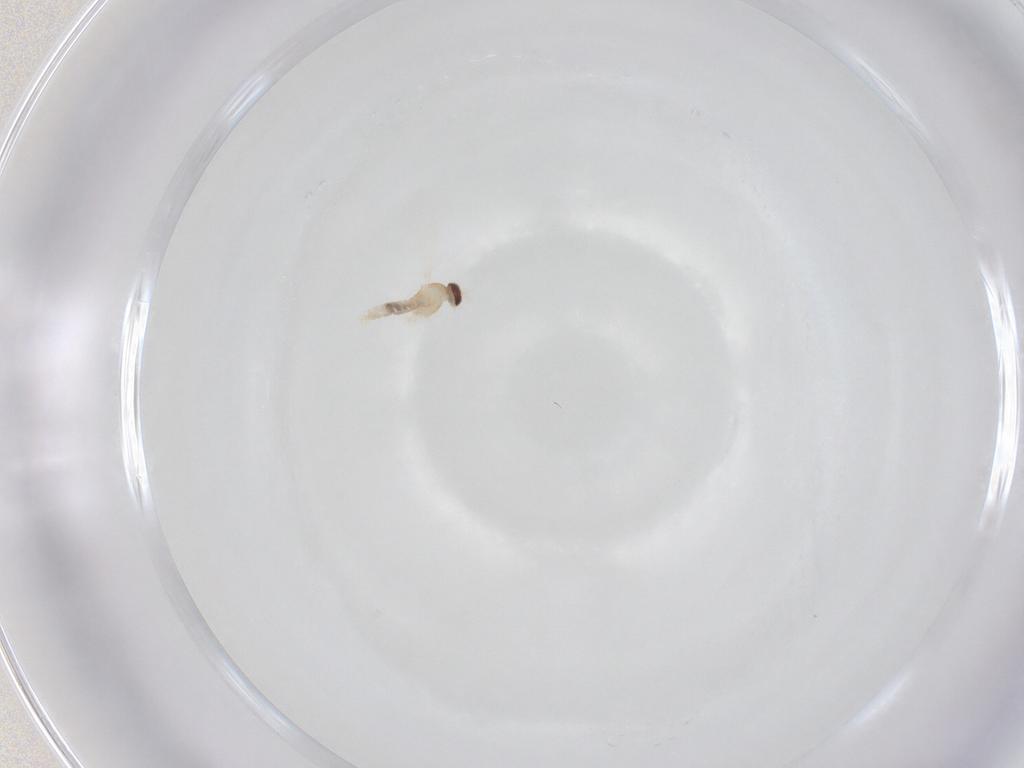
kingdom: Animalia
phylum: Arthropoda
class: Insecta
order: Diptera
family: Cecidomyiidae
